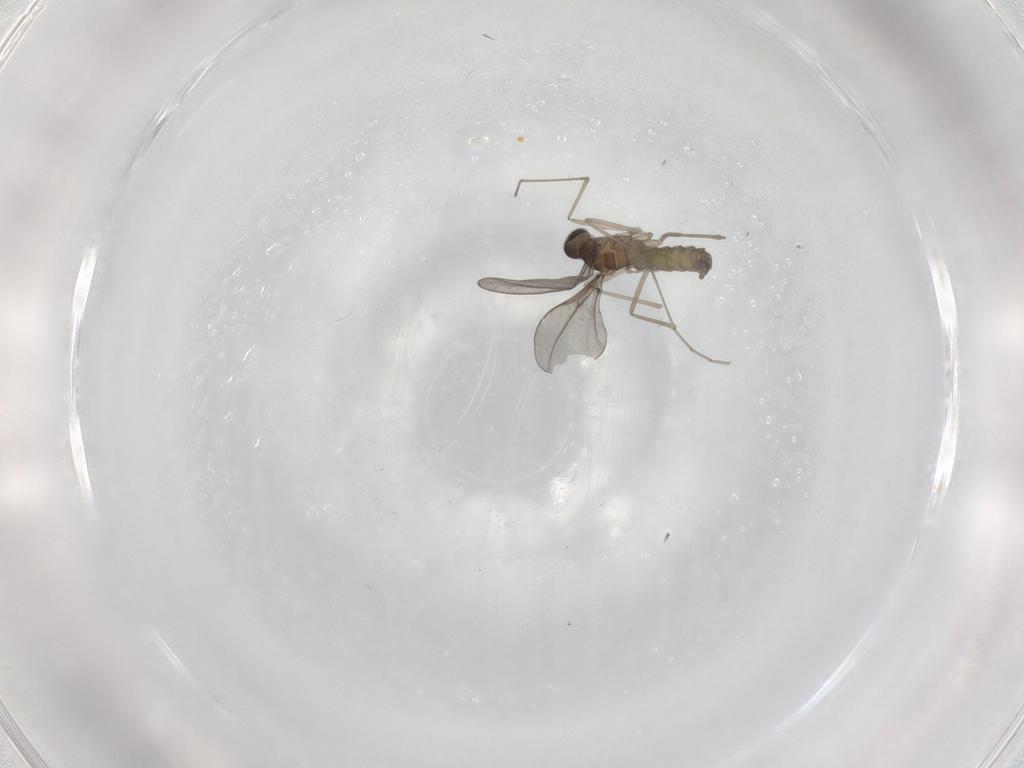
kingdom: Animalia
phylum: Arthropoda
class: Insecta
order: Diptera
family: Cecidomyiidae
